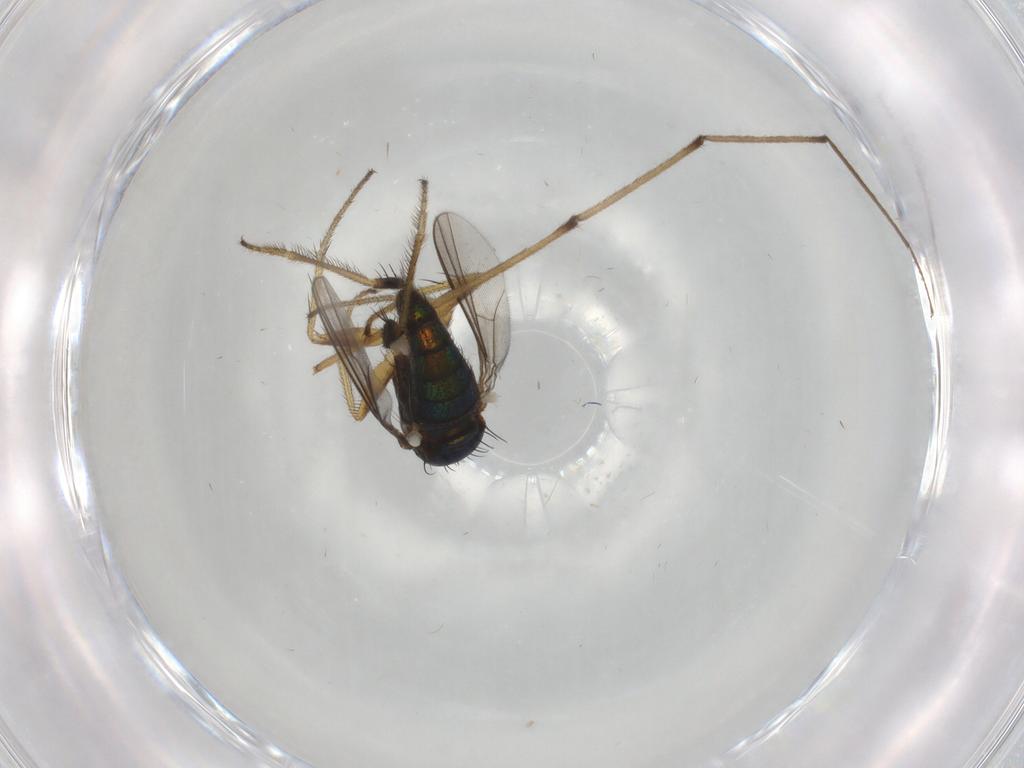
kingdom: Animalia
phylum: Arthropoda
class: Insecta
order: Diptera
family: Dolichopodidae
